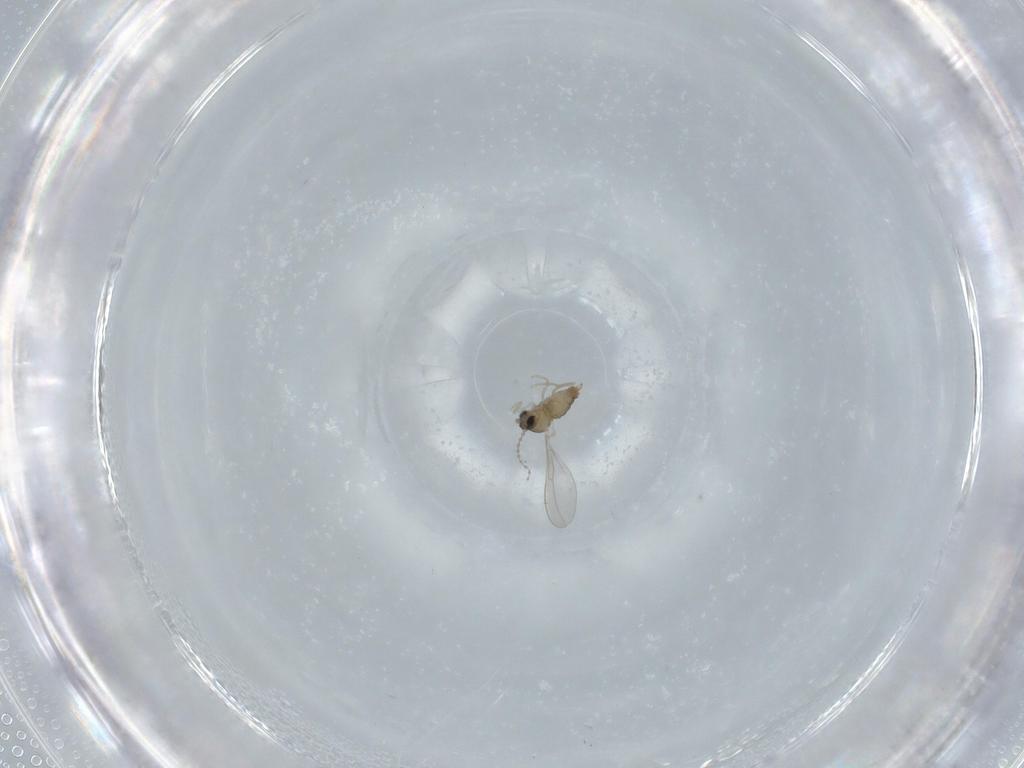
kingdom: Animalia
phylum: Arthropoda
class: Insecta
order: Diptera
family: Cecidomyiidae
